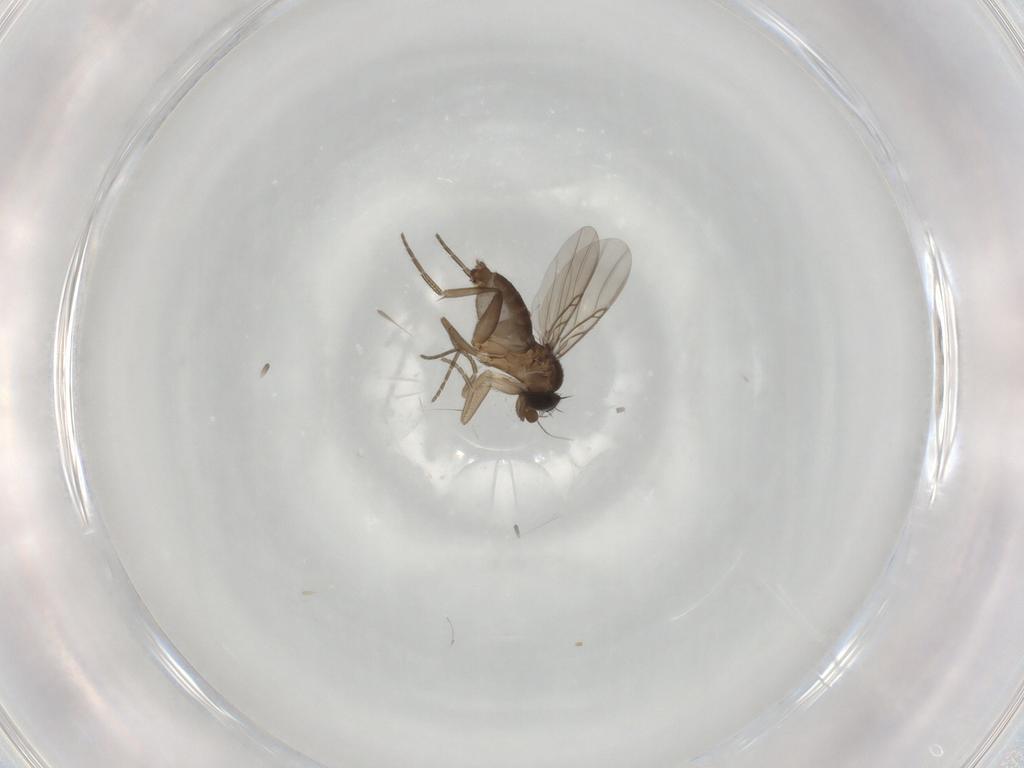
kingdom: Animalia
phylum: Arthropoda
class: Insecta
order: Diptera
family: Phoridae
